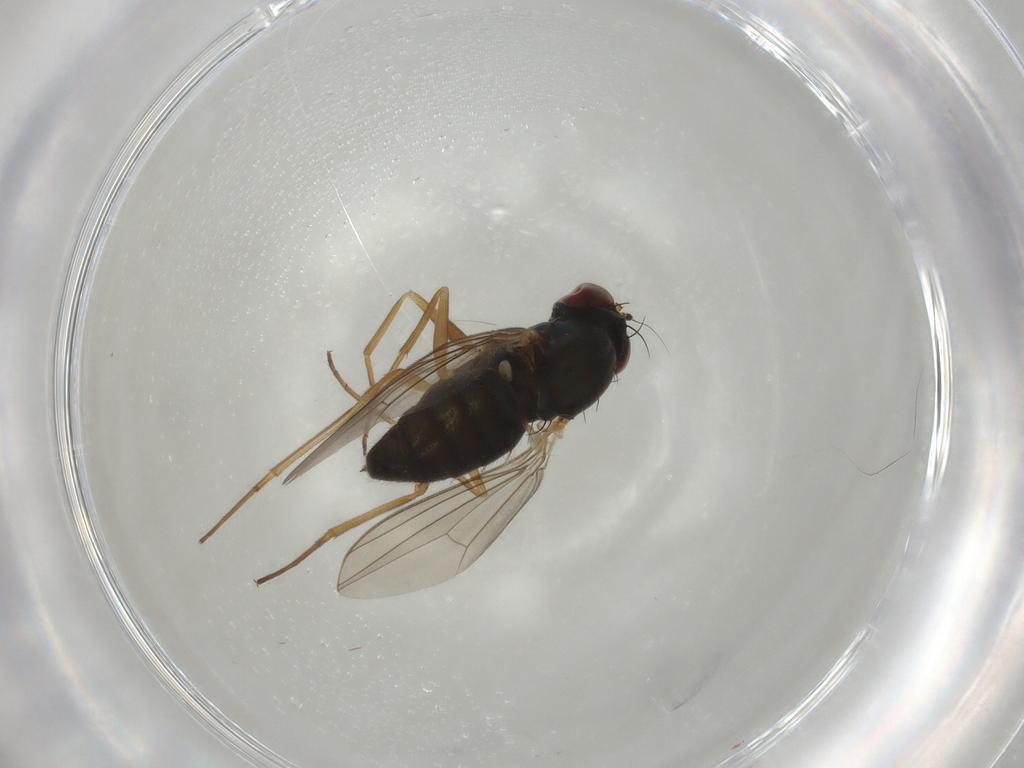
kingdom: Animalia
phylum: Arthropoda
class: Insecta
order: Diptera
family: Dolichopodidae
